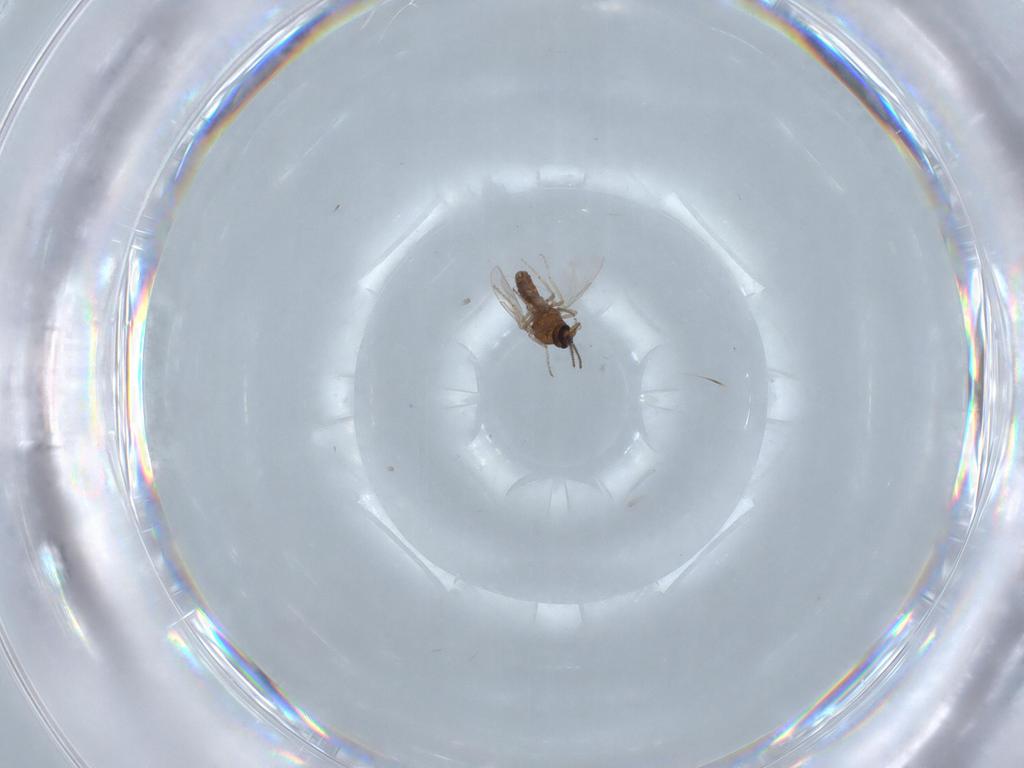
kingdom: Animalia
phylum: Arthropoda
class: Insecta
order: Diptera
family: Ceratopogonidae
